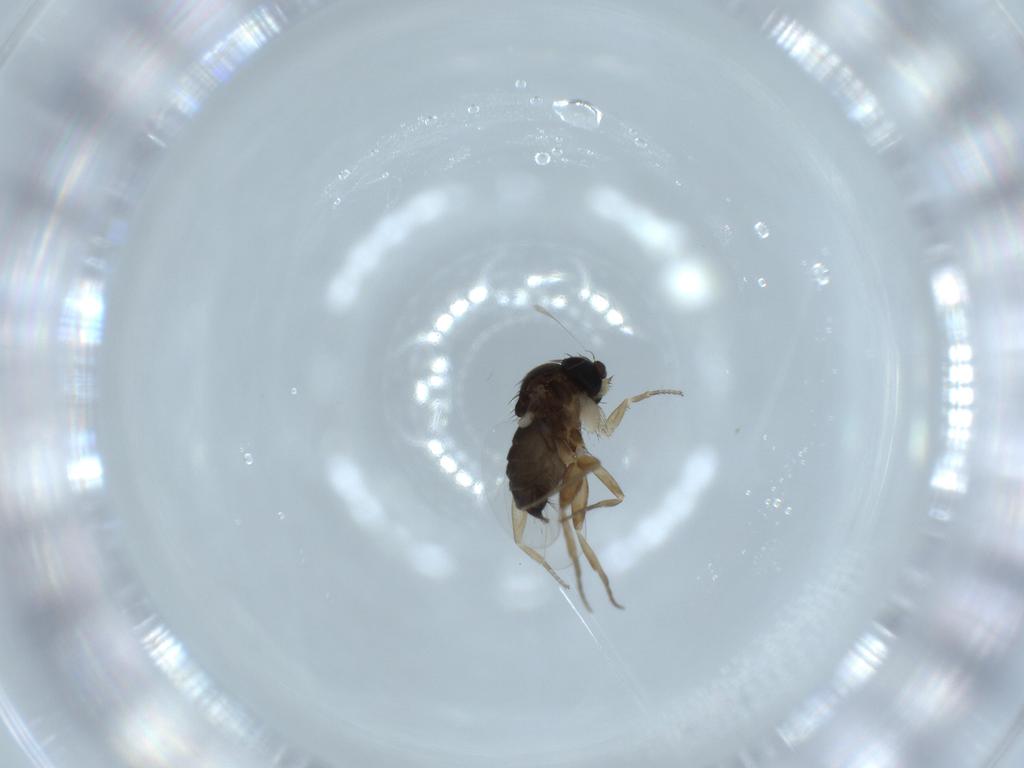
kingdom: Animalia
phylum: Arthropoda
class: Insecta
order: Diptera
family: Phoridae
